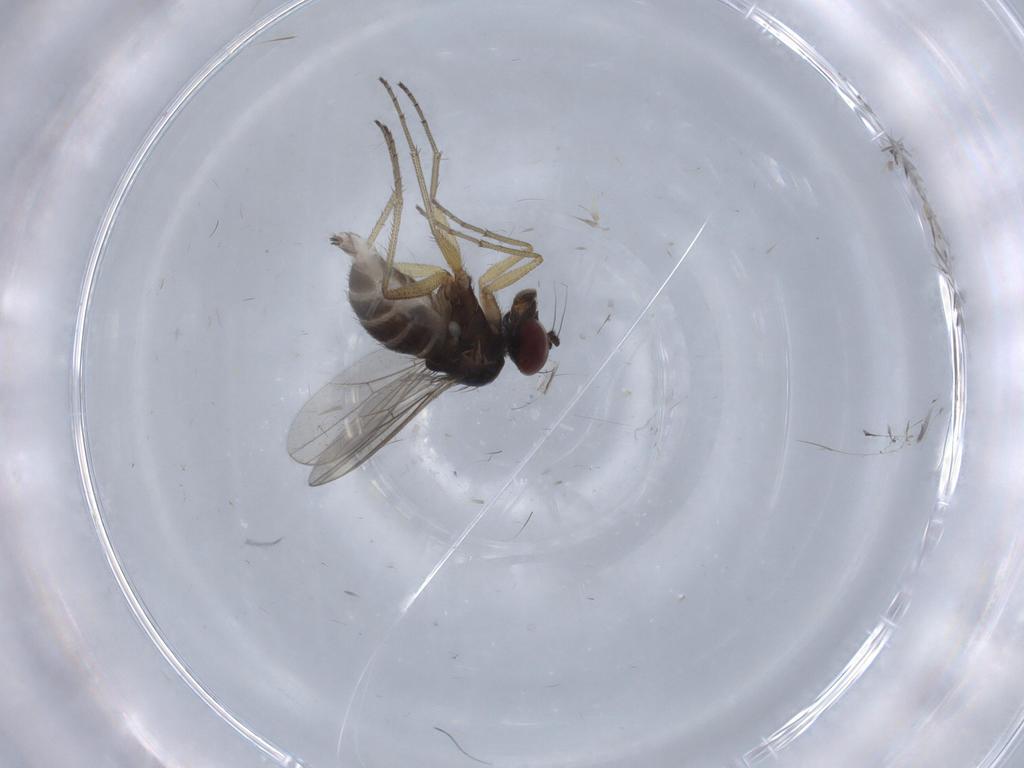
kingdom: Animalia
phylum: Arthropoda
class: Insecta
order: Diptera
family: Dolichopodidae
